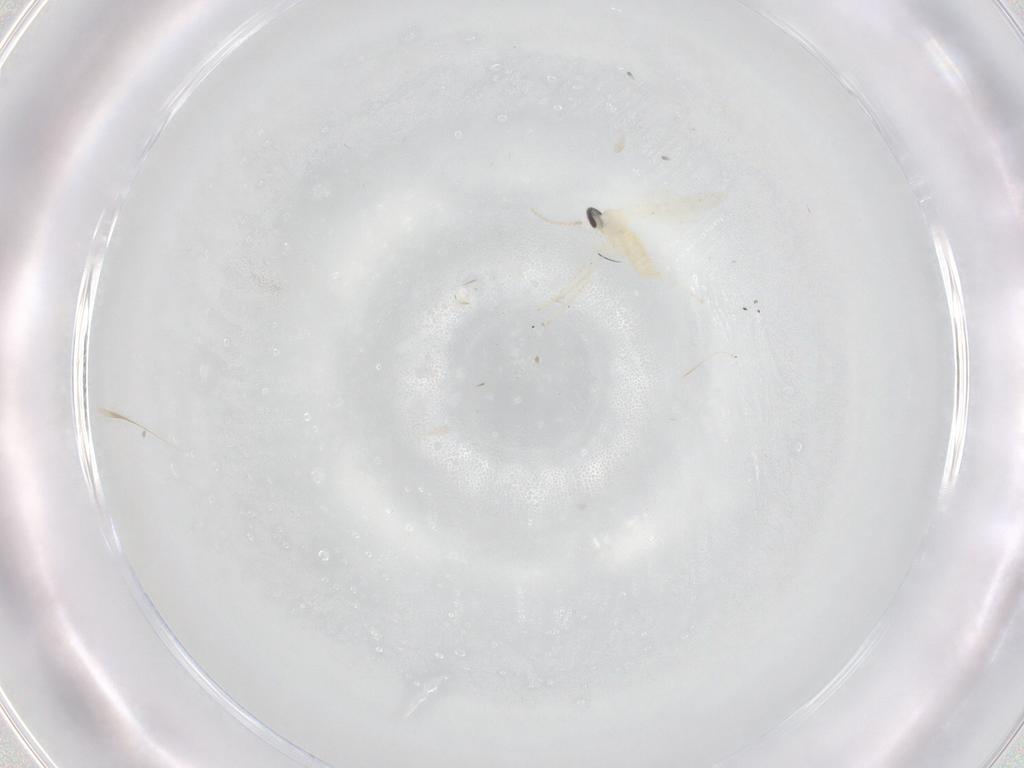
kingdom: Animalia
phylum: Arthropoda
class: Insecta
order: Diptera
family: Cecidomyiidae
